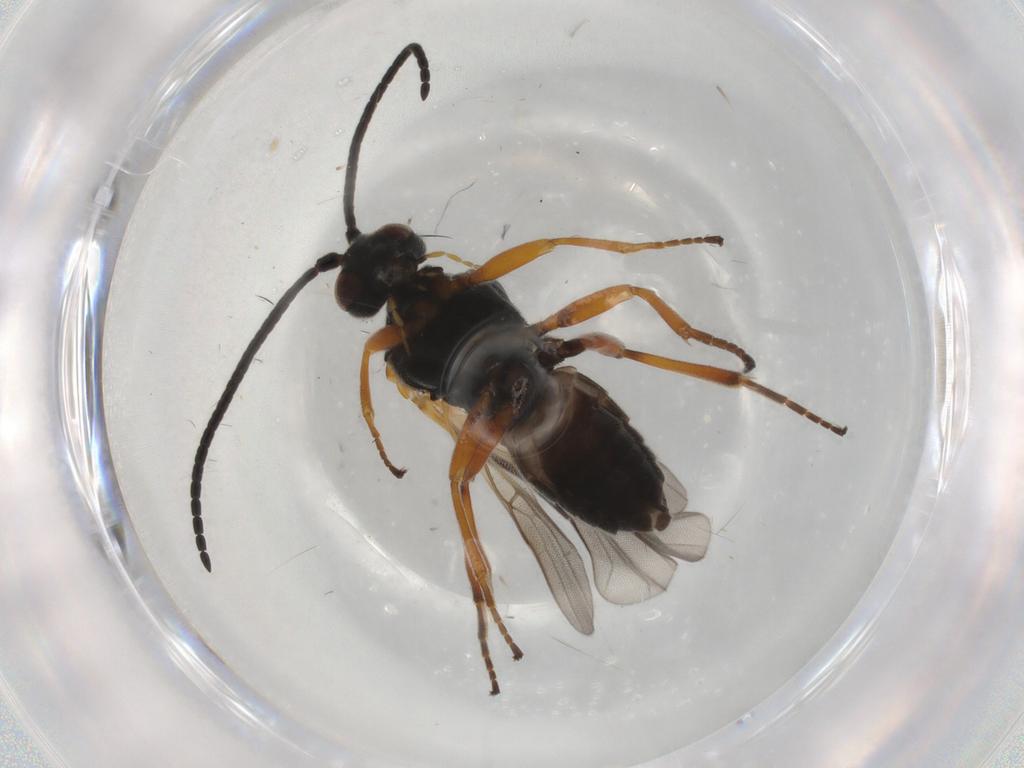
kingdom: Animalia
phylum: Arthropoda
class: Insecta
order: Hymenoptera
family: Braconidae
